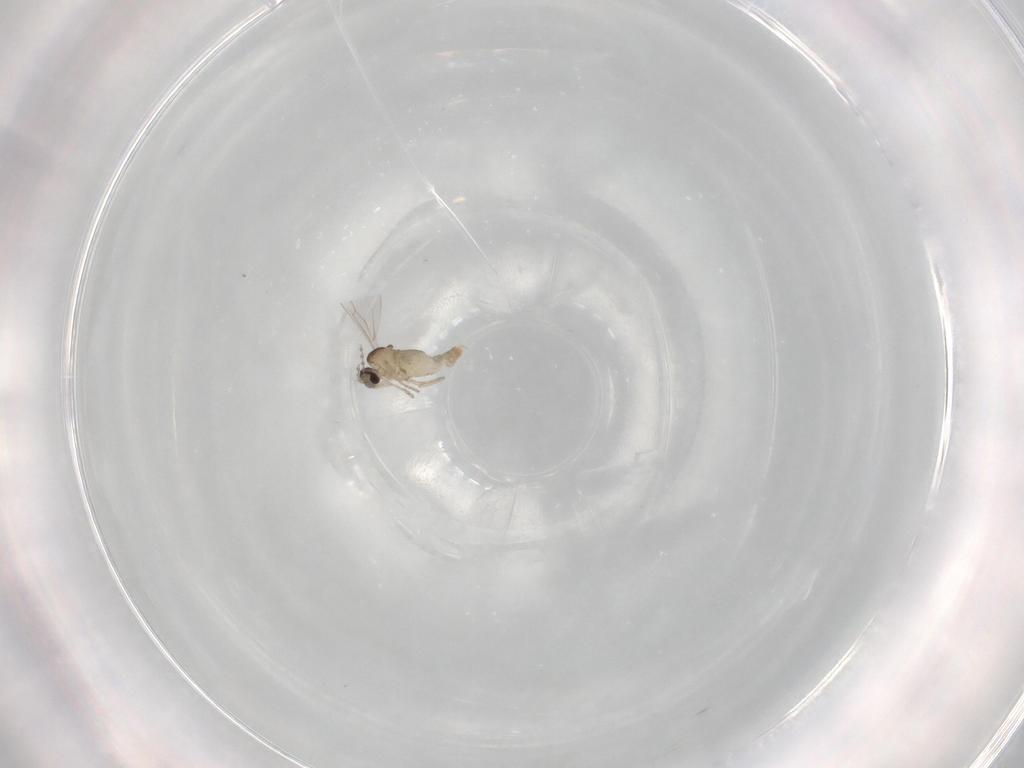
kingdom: Animalia
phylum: Arthropoda
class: Insecta
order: Diptera
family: Cecidomyiidae
